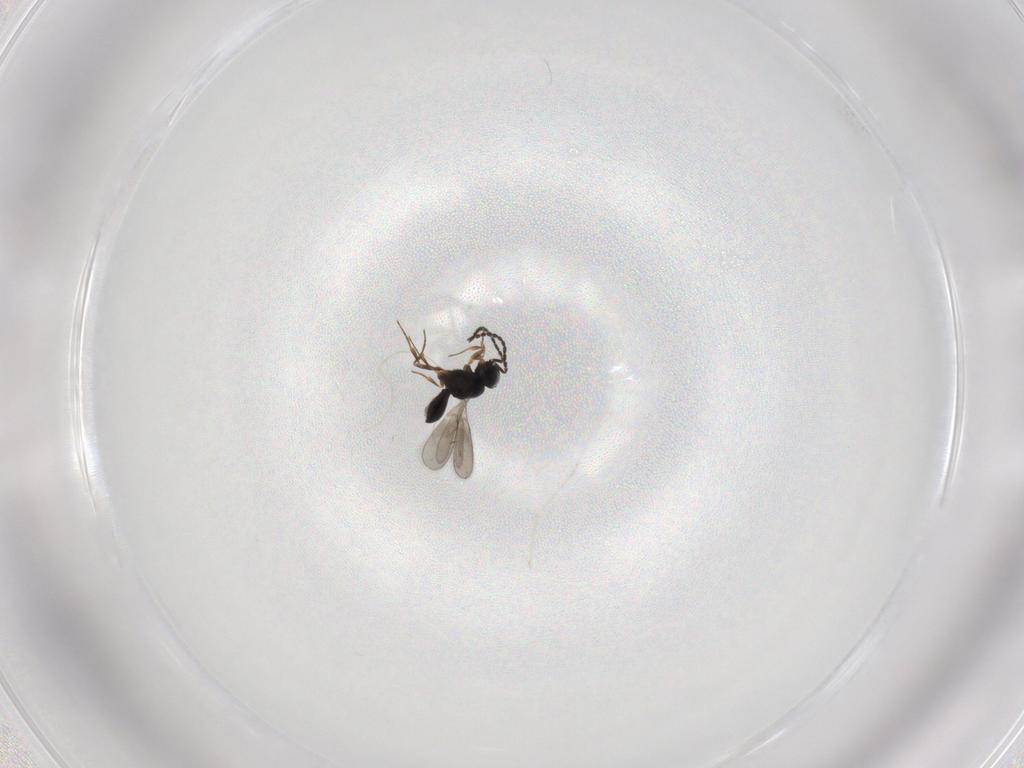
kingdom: Animalia
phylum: Arthropoda
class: Insecta
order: Hymenoptera
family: Scelionidae
